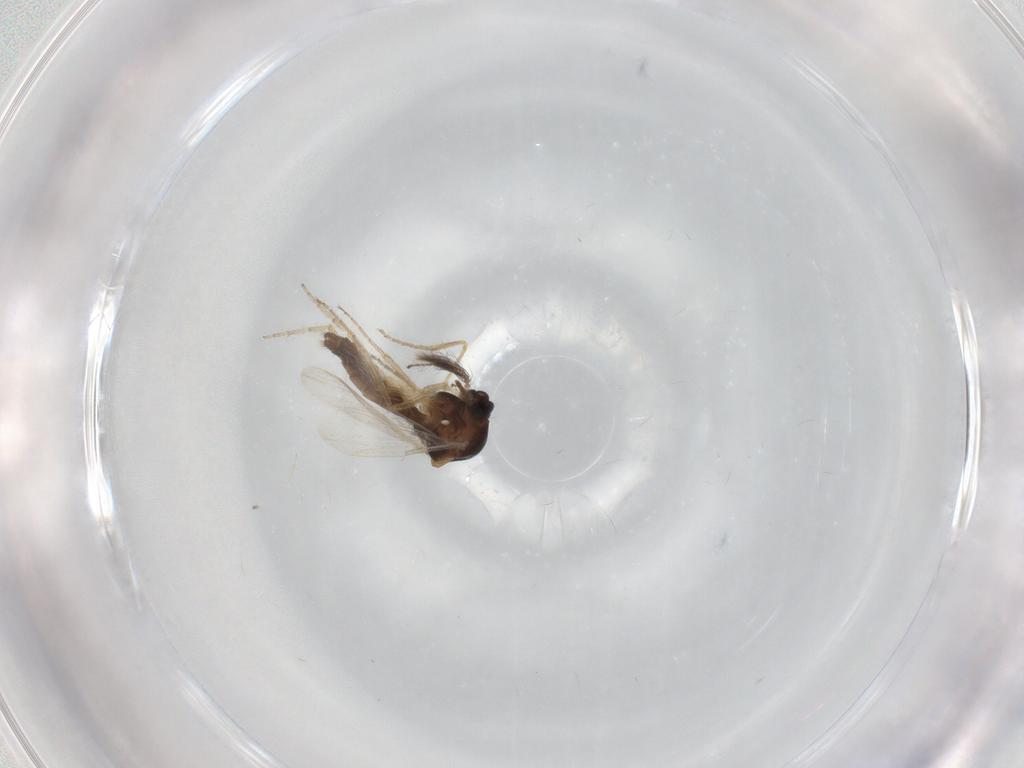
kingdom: Animalia
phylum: Arthropoda
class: Insecta
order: Diptera
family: Ceratopogonidae
